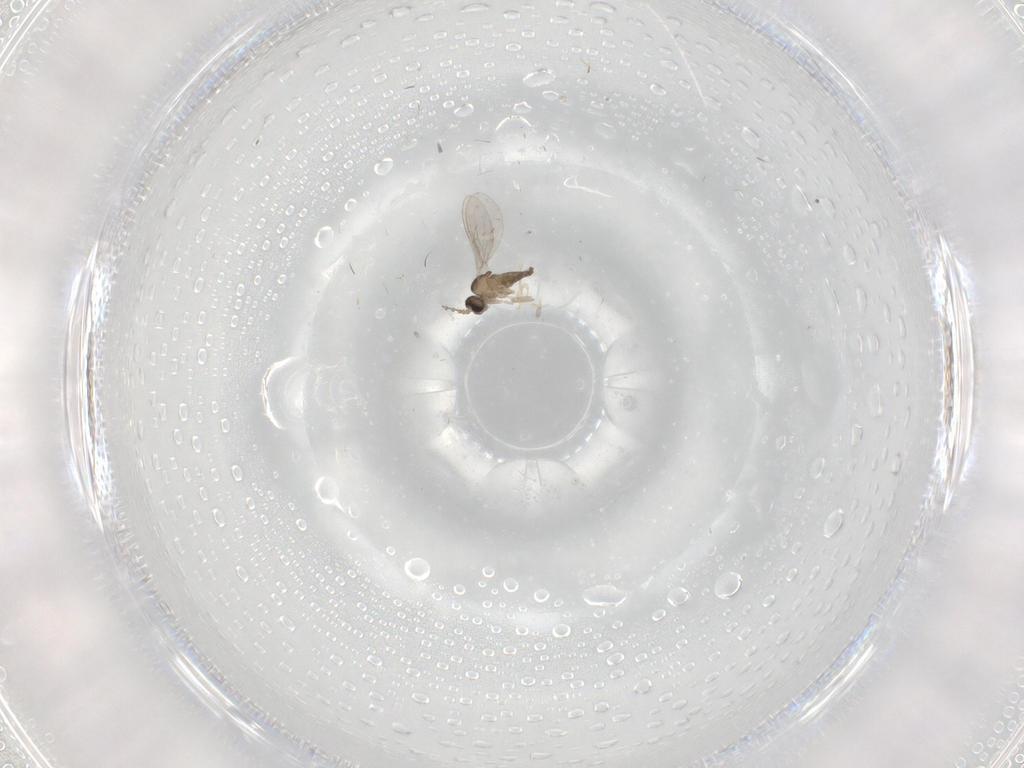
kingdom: Animalia
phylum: Arthropoda
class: Insecta
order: Diptera
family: Cecidomyiidae
